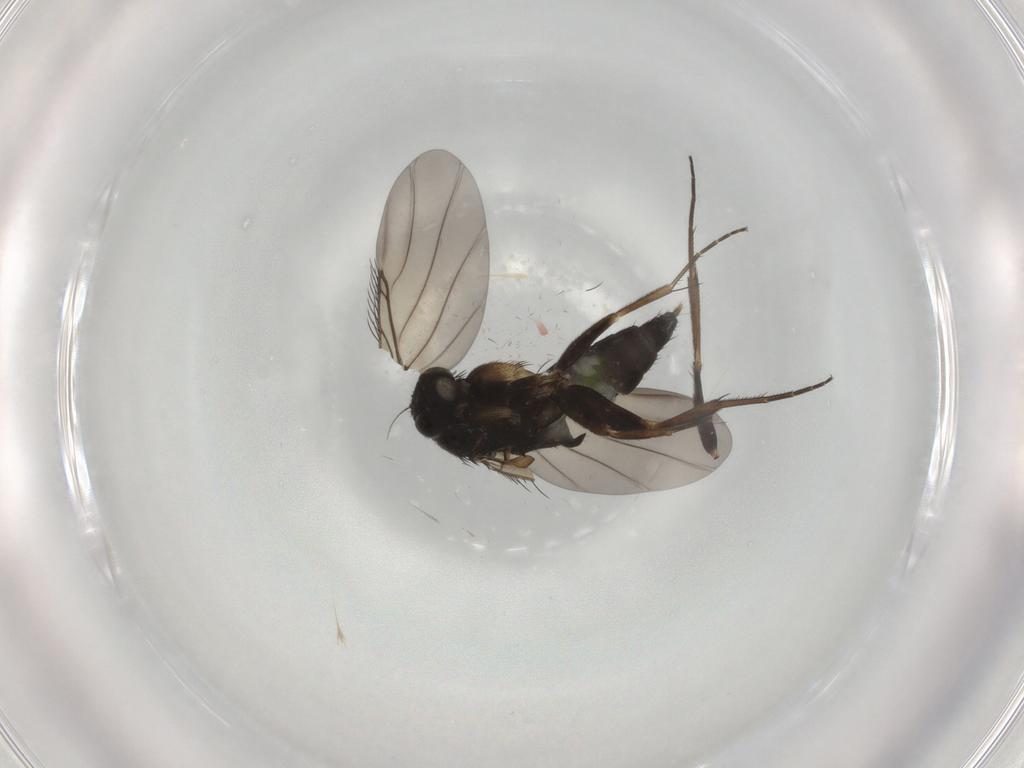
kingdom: Animalia
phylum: Arthropoda
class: Insecta
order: Diptera
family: Phoridae
